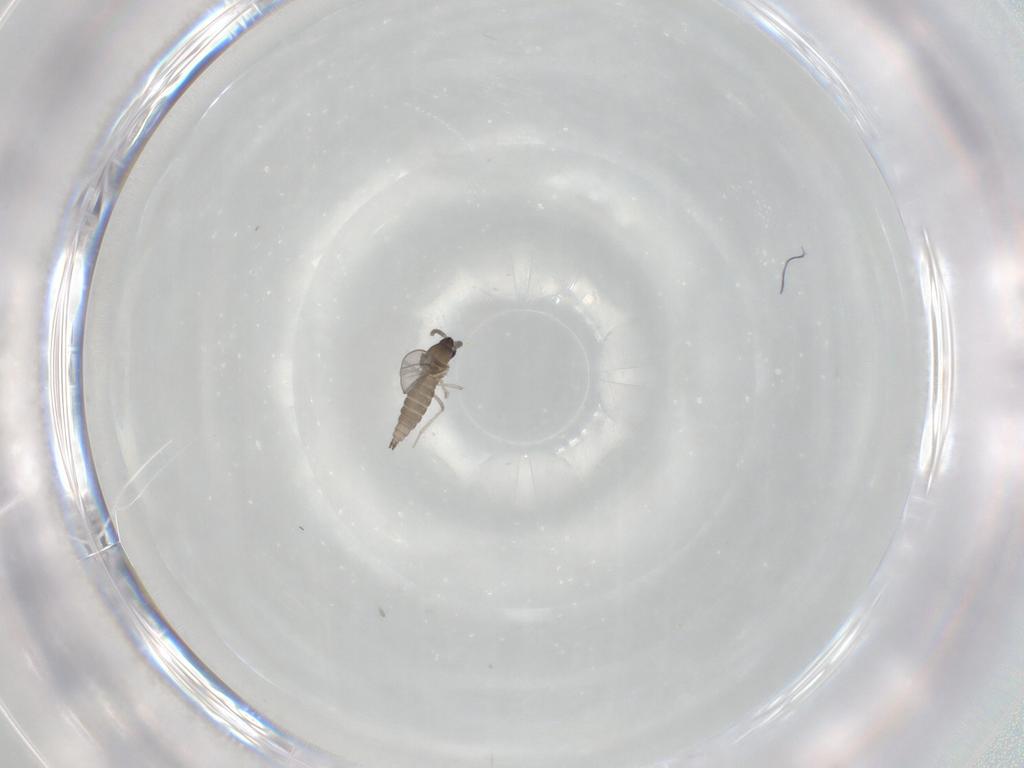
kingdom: Animalia
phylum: Arthropoda
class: Insecta
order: Diptera
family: Cecidomyiidae
